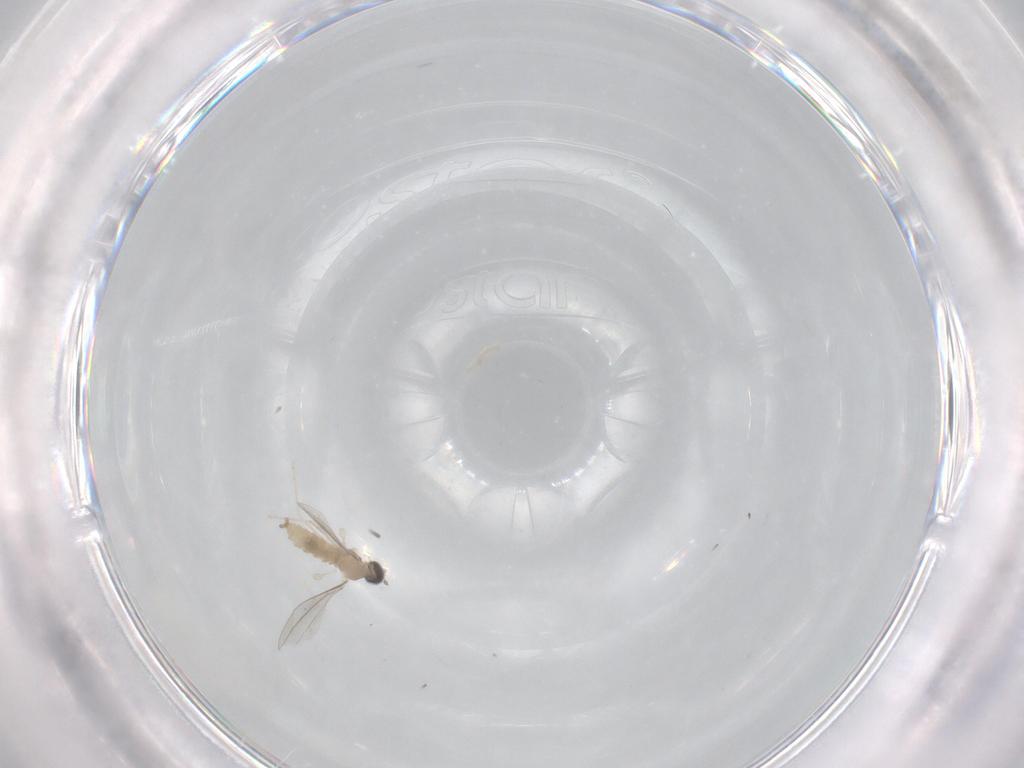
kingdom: Animalia
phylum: Arthropoda
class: Insecta
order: Diptera
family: Cecidomyiidae
